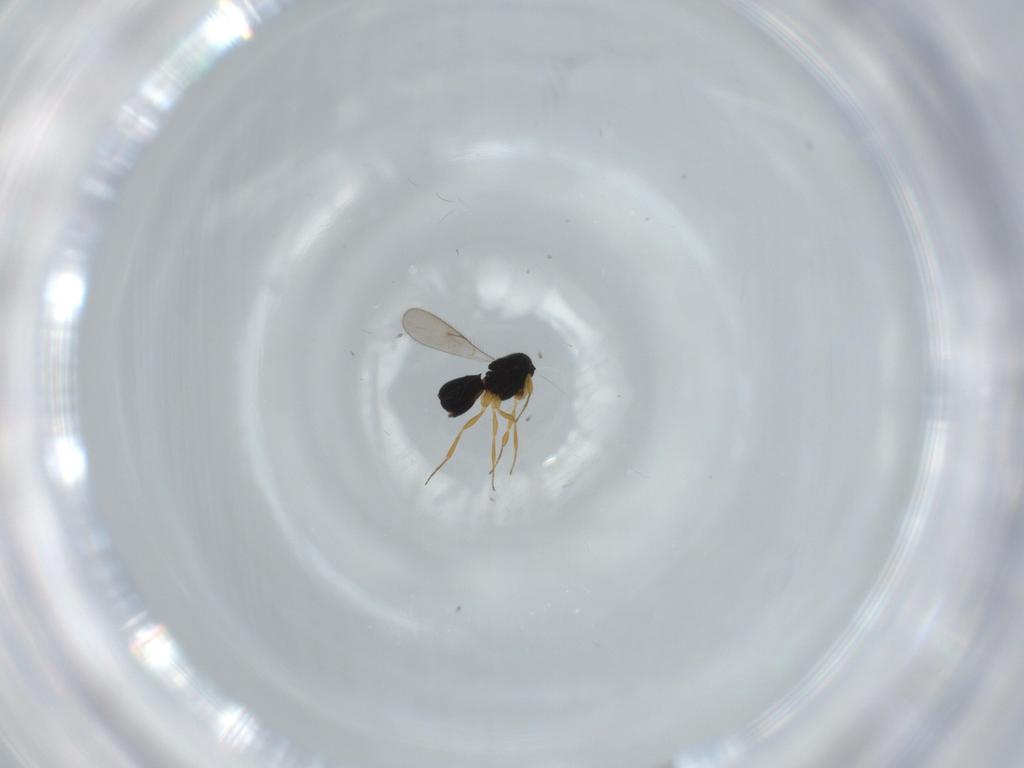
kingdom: Animalia
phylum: Arthropoda
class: Insecta
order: Hymenoptera
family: Scelionidae
